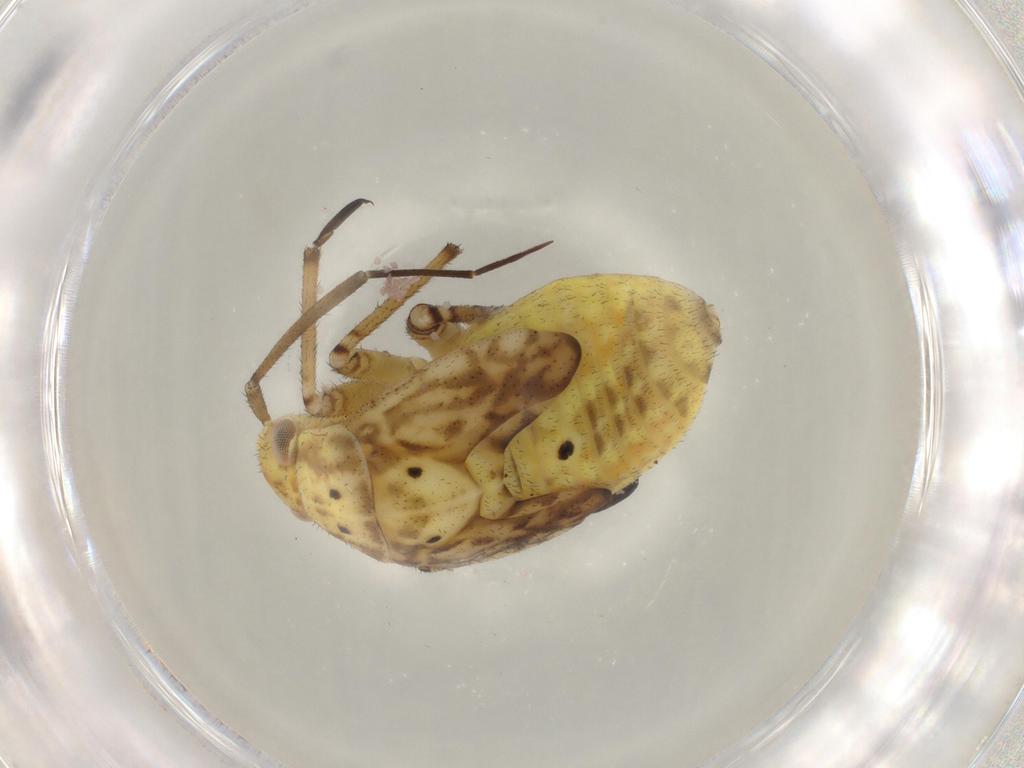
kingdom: Animalia
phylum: Arthropoda
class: Insecta
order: Hemiptera
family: Miridae
